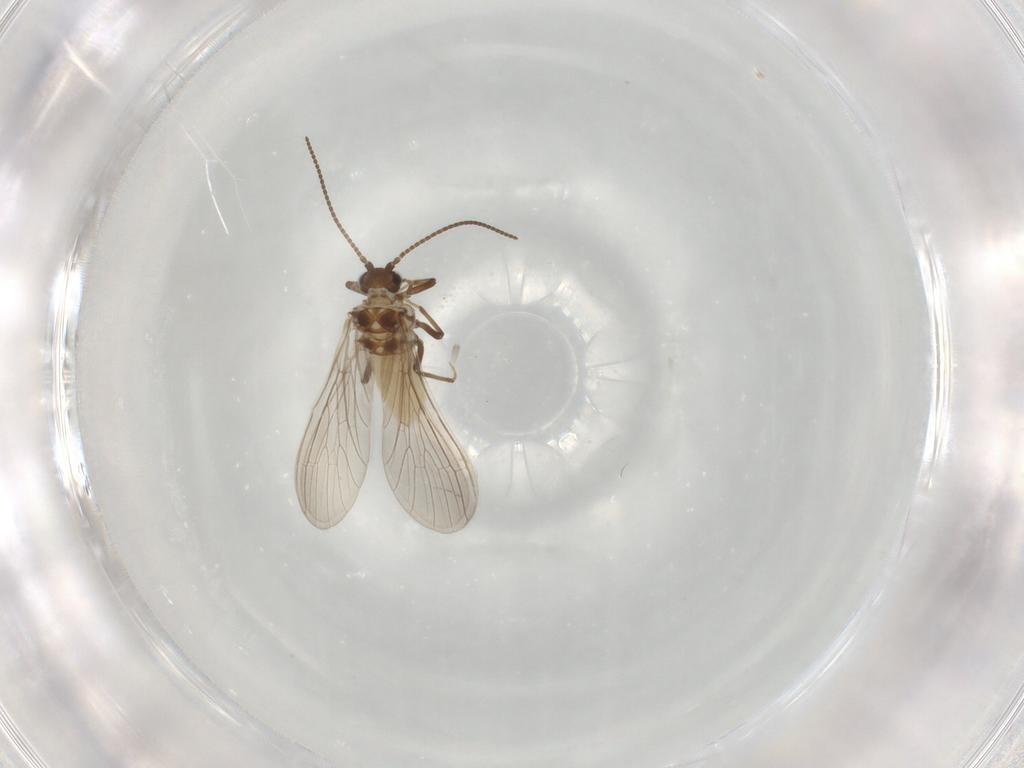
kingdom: Animalia
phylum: Arthropoda
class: Insecta
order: Neuroptera
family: Coniopterygidae
